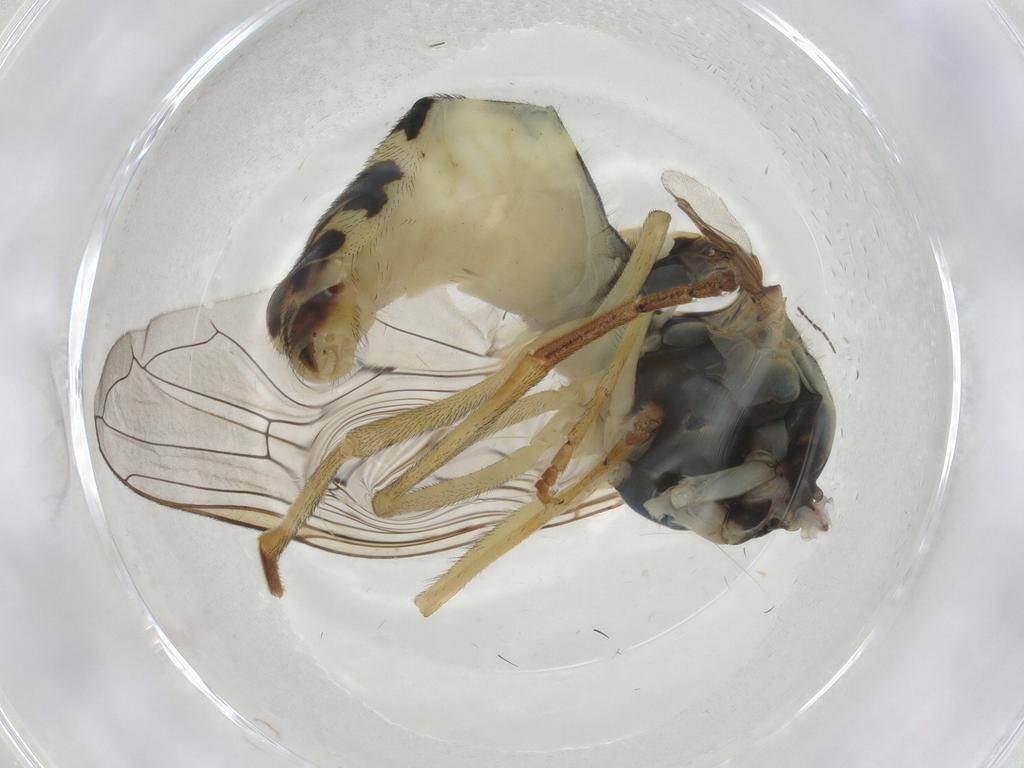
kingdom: Animalia
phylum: Arthropoda
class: Insecta
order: Diptera
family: Syrphidae
